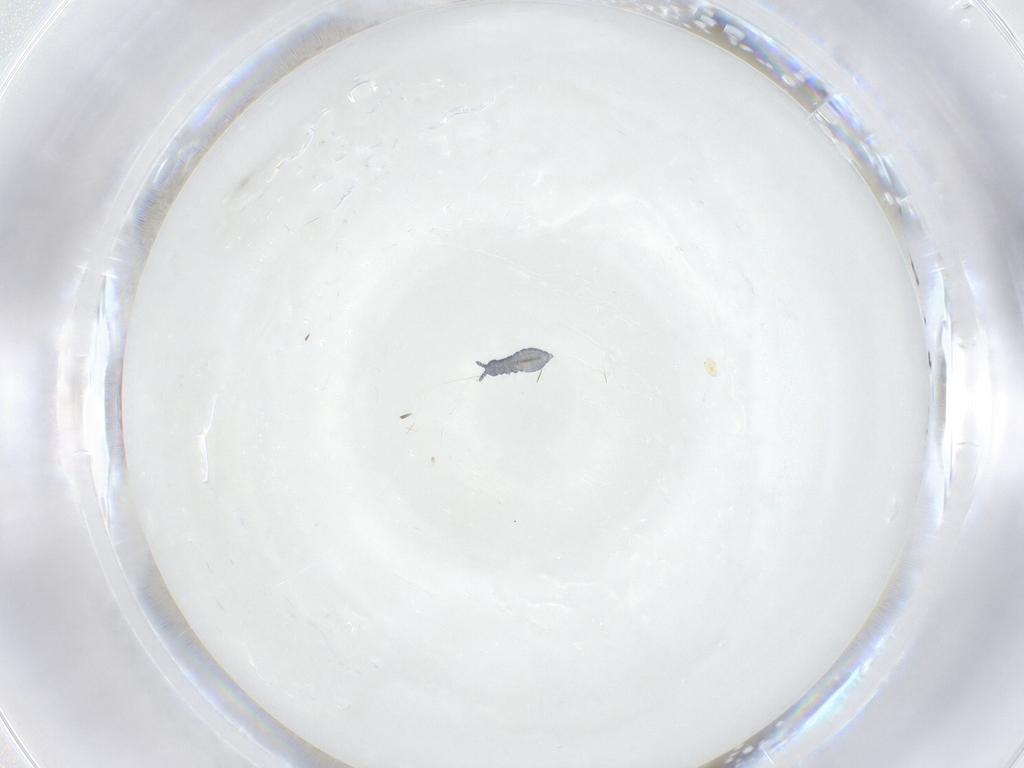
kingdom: Animalia
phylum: Arthropoda
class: Collembola
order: Poduromorpha
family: Hypogastruridae
